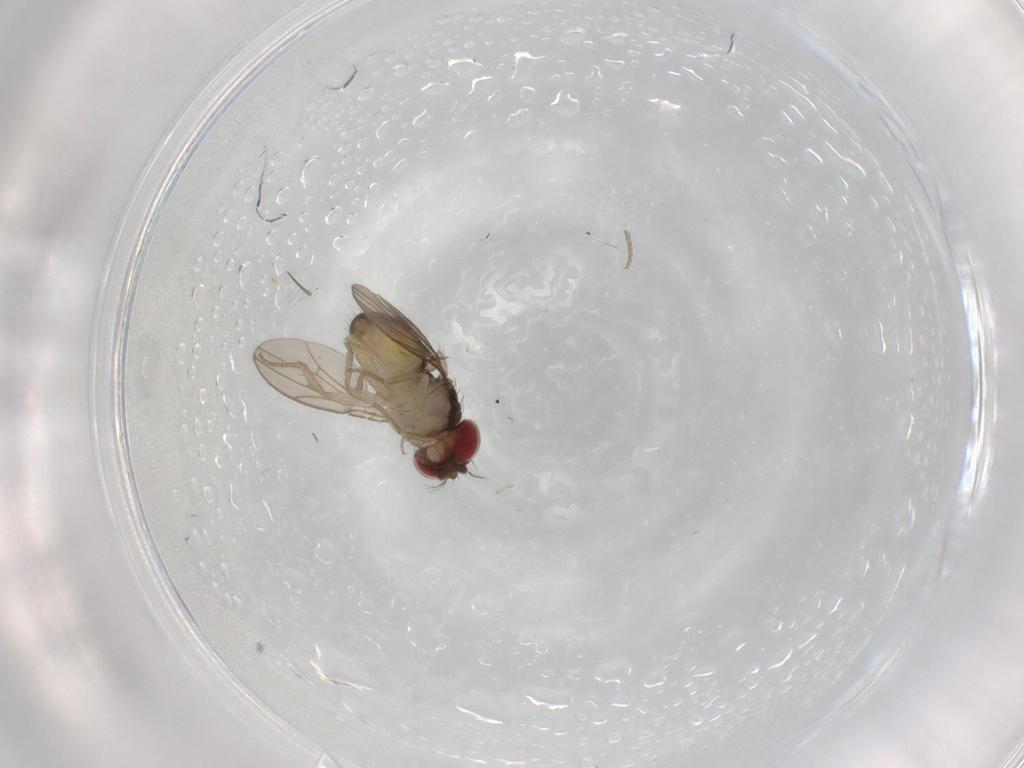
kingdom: Animalia
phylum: Arthropoda
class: Insecta
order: Diptera
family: Drosophilidae
